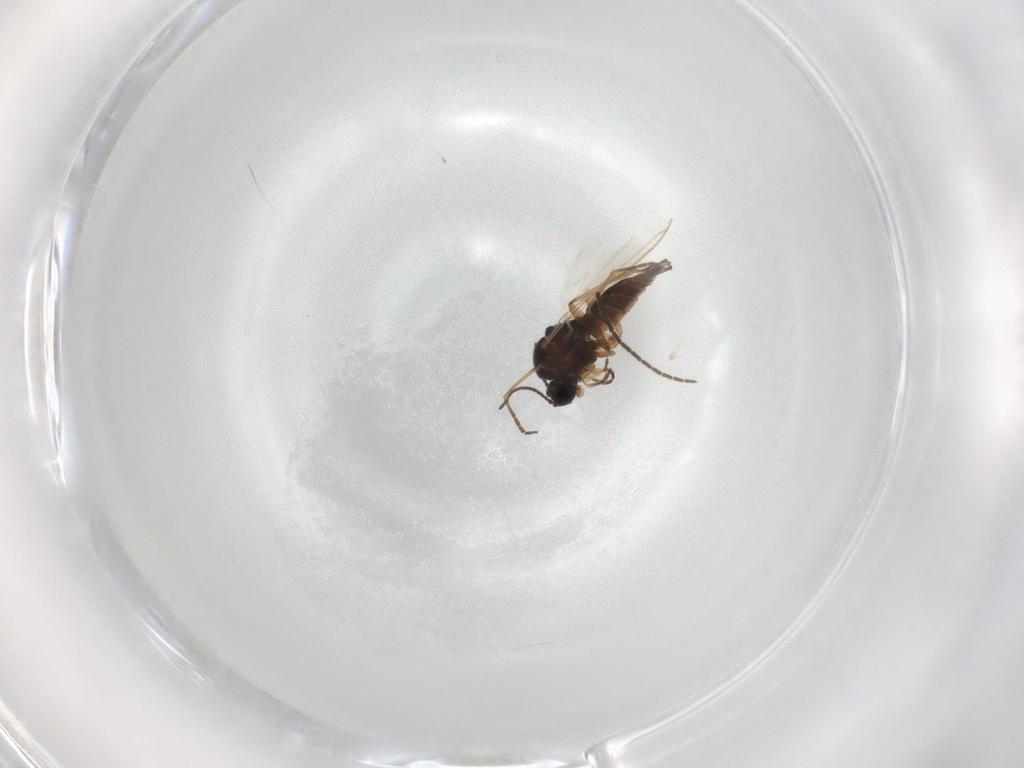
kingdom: Animalia
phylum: Arthropoda
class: Insecta
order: Diptera
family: Sciaridae
